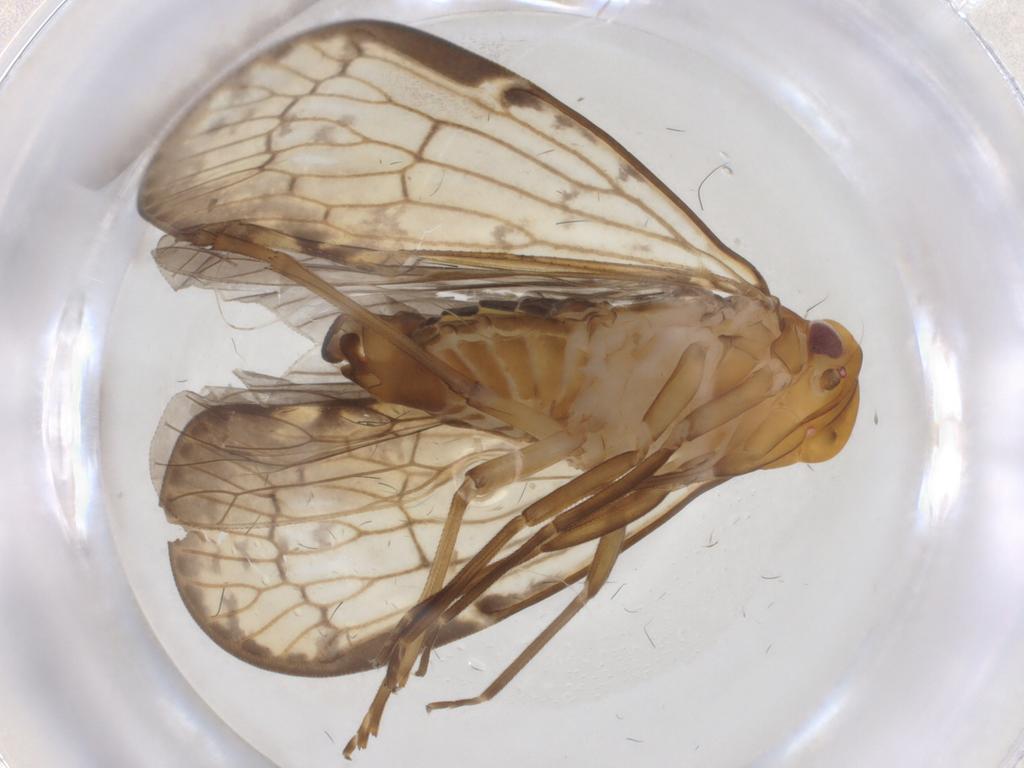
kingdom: Animalia
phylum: Arthropoda
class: Insecta
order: Hemiptera
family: Cixiidae
